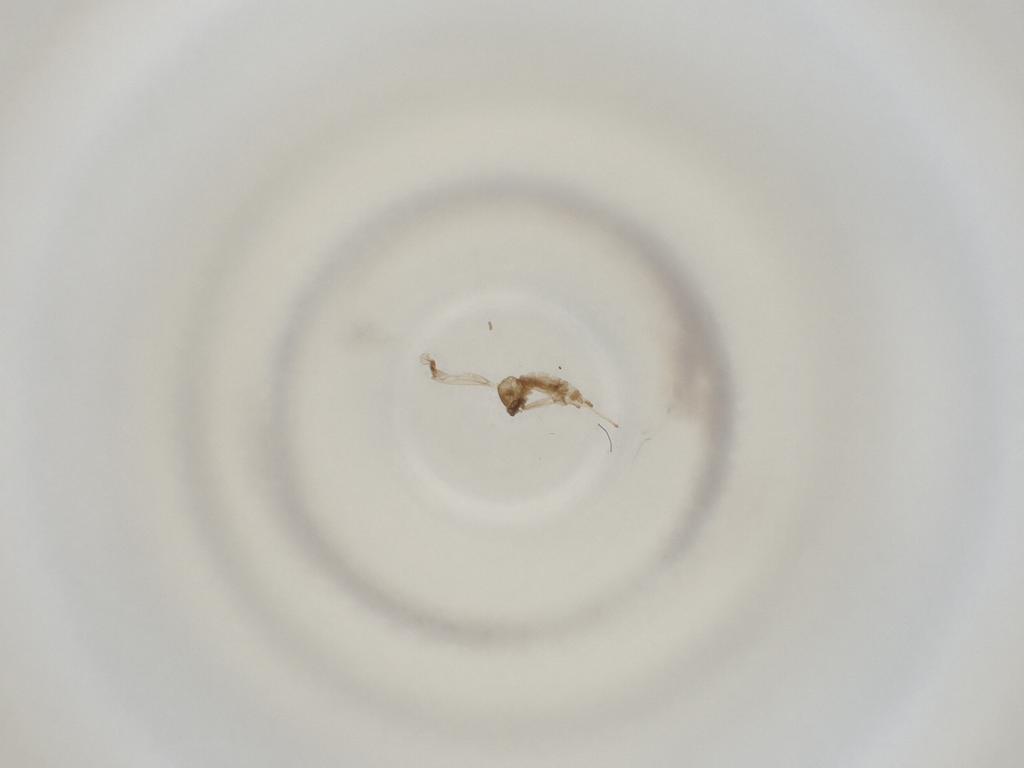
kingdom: Animalia
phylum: Arthropoda
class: Insecta
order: Diptera
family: Cecidomyiidae
